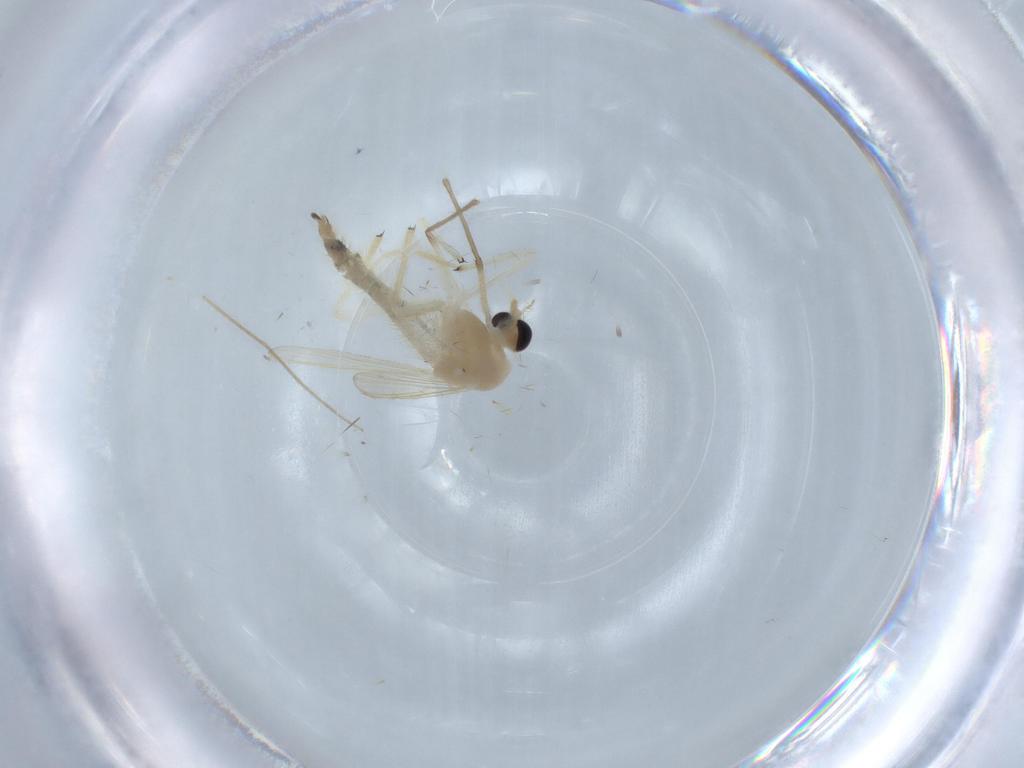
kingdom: Animalia
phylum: Arthropoda
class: Insecta
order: Diptera
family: Chironomidae
